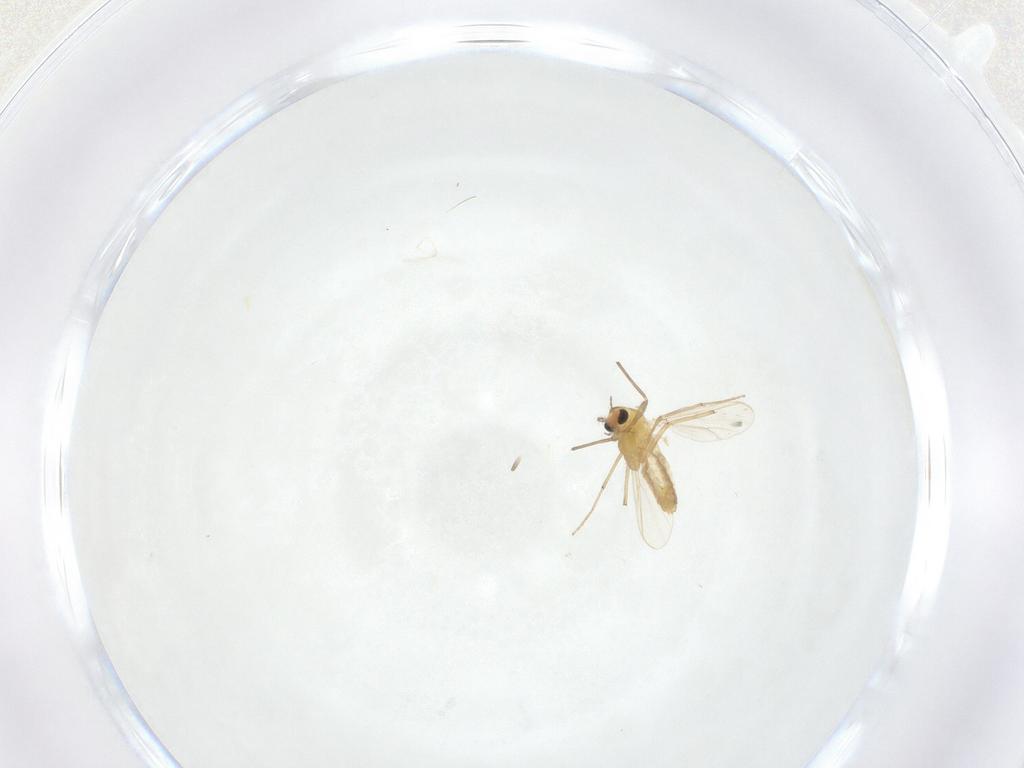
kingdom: Animalia
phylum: Arthropoda
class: Insecta
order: Diptera
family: Chironomidae
